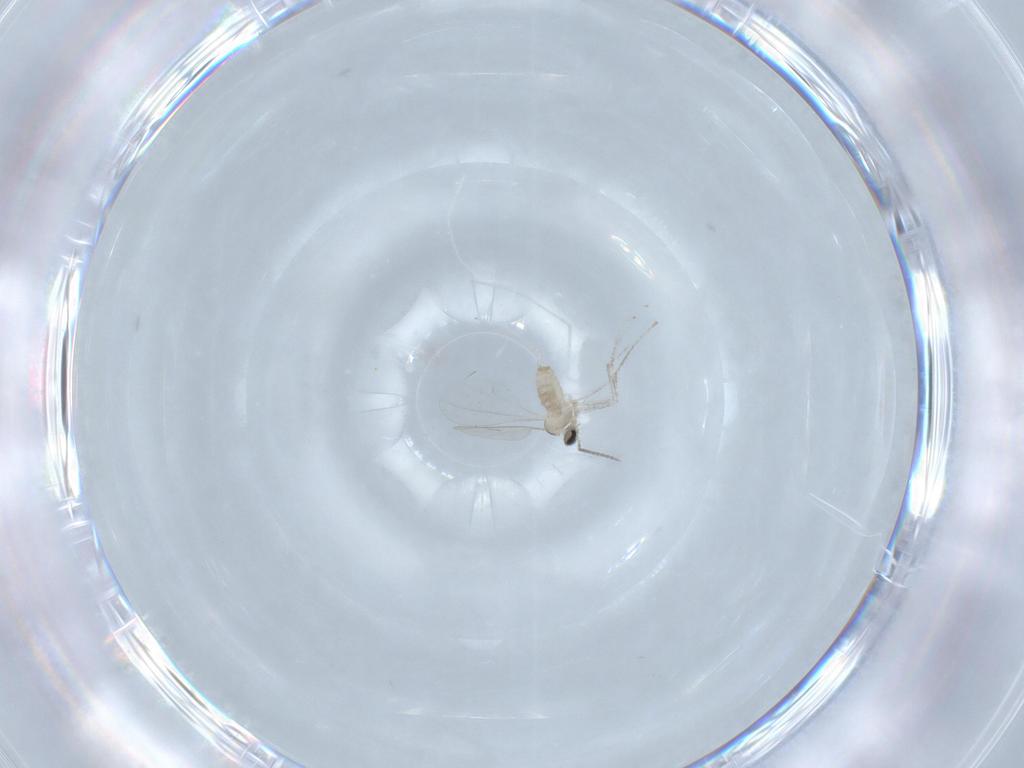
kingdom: Animalia
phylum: Arthropoda
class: Insecta
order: Diptera
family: Cecidomyiidae
